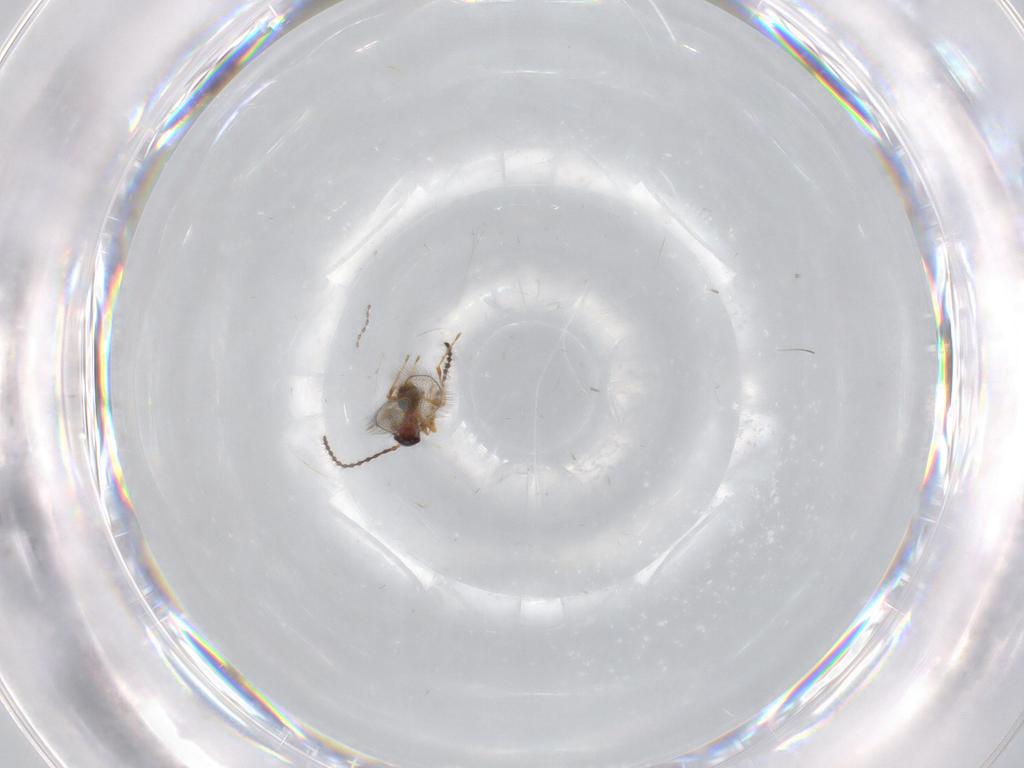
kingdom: Animalia
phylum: Arthropoda
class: Insecta
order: Hymenoptera
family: Diapriidae
